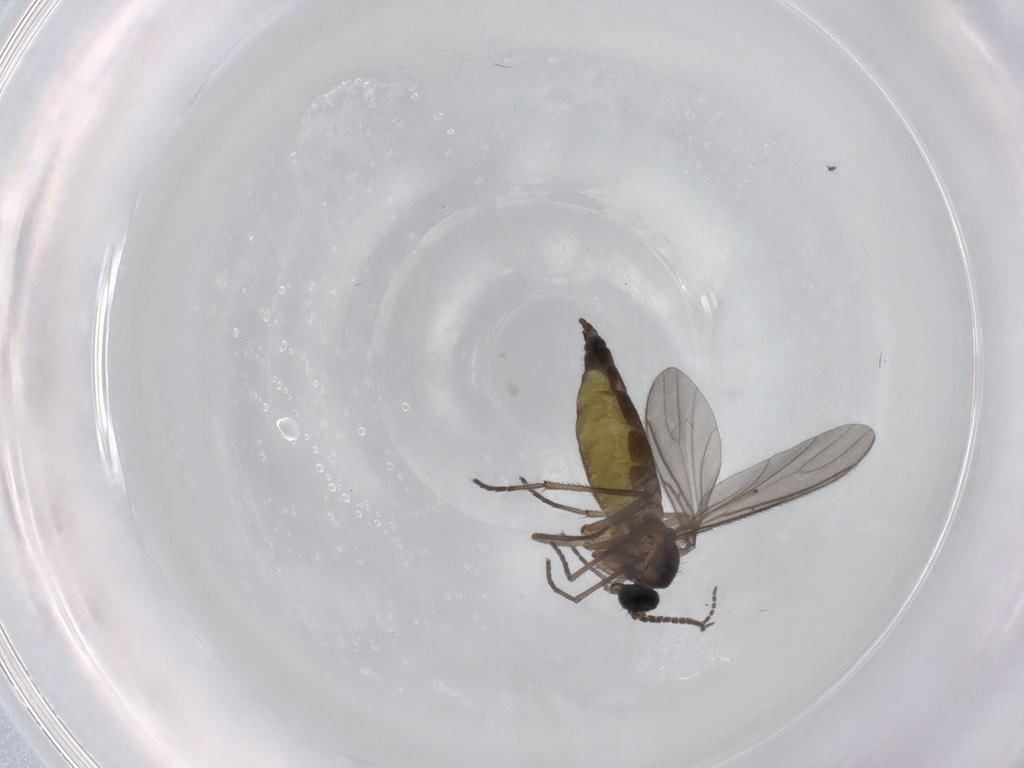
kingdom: Animalia
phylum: Arthropoda
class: Insecta
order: Diptera
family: Sciaridae
